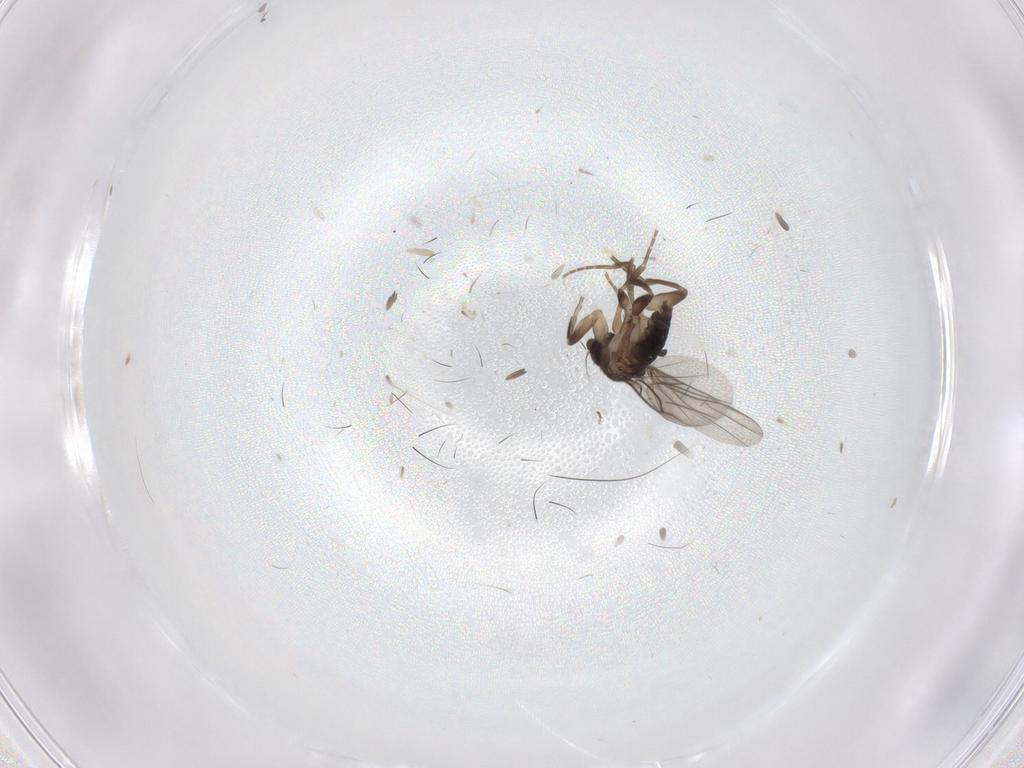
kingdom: Animalia
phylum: Arthropoda
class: Insecta
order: Diptera
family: Phoridae
